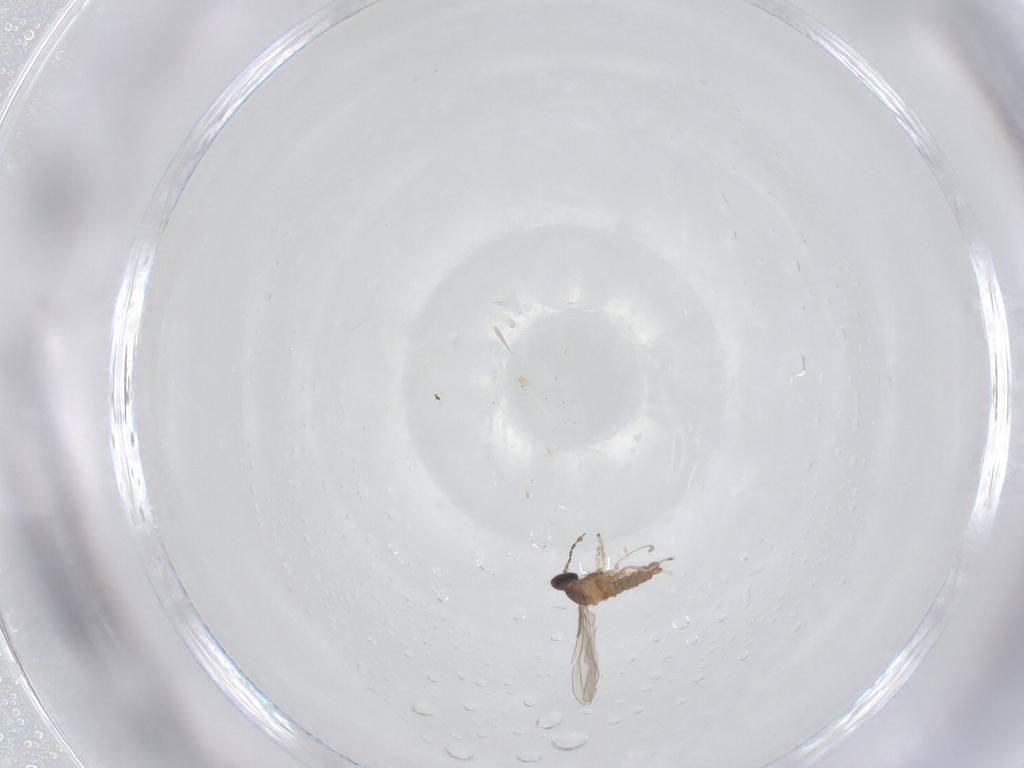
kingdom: Animalia
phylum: Arthropoda
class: Insecta
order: Diptera
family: Cecidomyiidae
